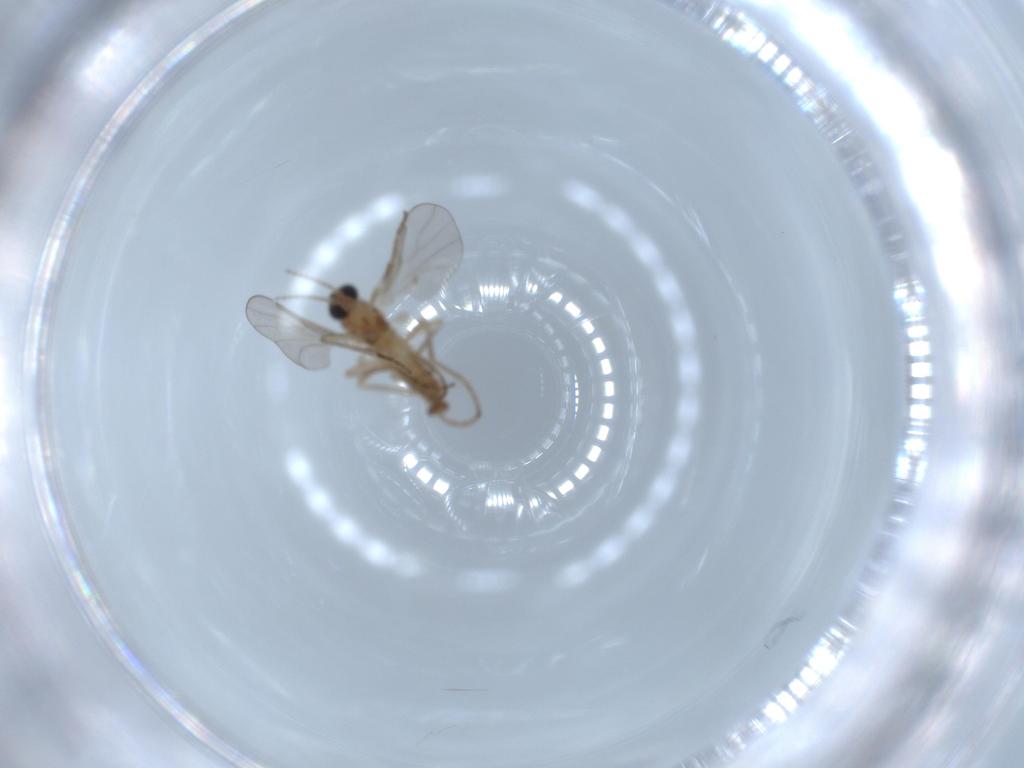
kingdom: Animalia
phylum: Arthropoda
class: Insecta
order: Diptera
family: Cecidomyiidae
